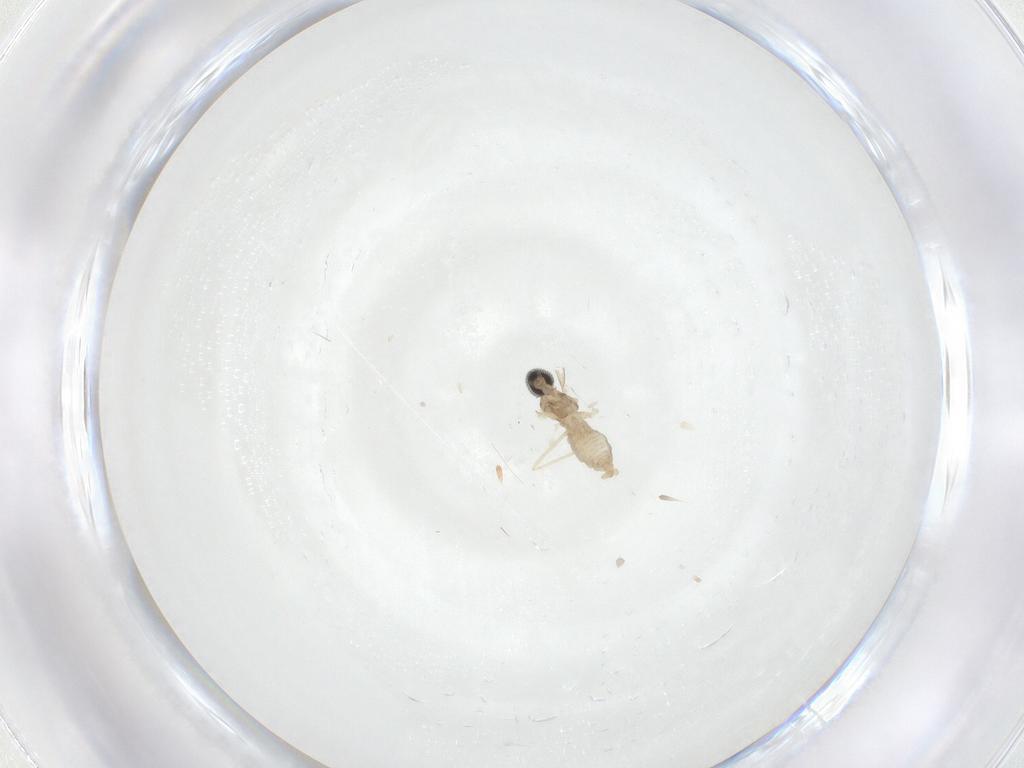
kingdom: Animalia
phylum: Arthropoda
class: Insecta
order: Diptera
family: Cecidomyiidae
